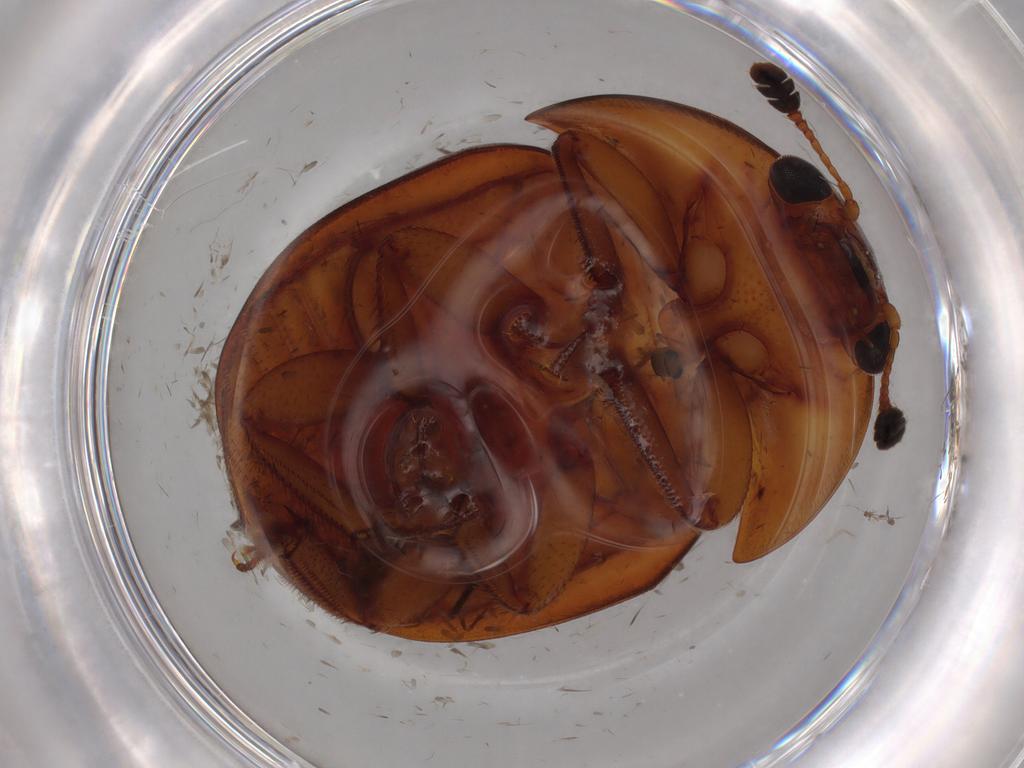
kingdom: Animalia
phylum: Arthropoda
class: Insecta
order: Coleoptera
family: Nitidulidae
